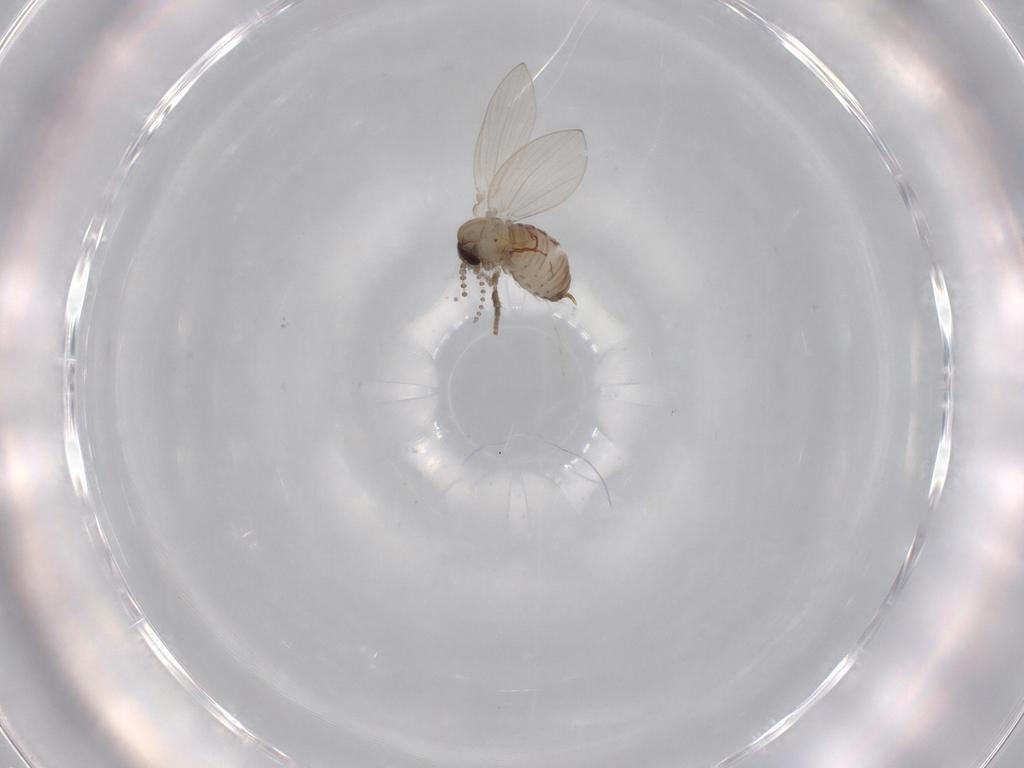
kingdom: Animalia
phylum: Arthropoda
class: Insecta
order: Diptera
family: Psychodidae
